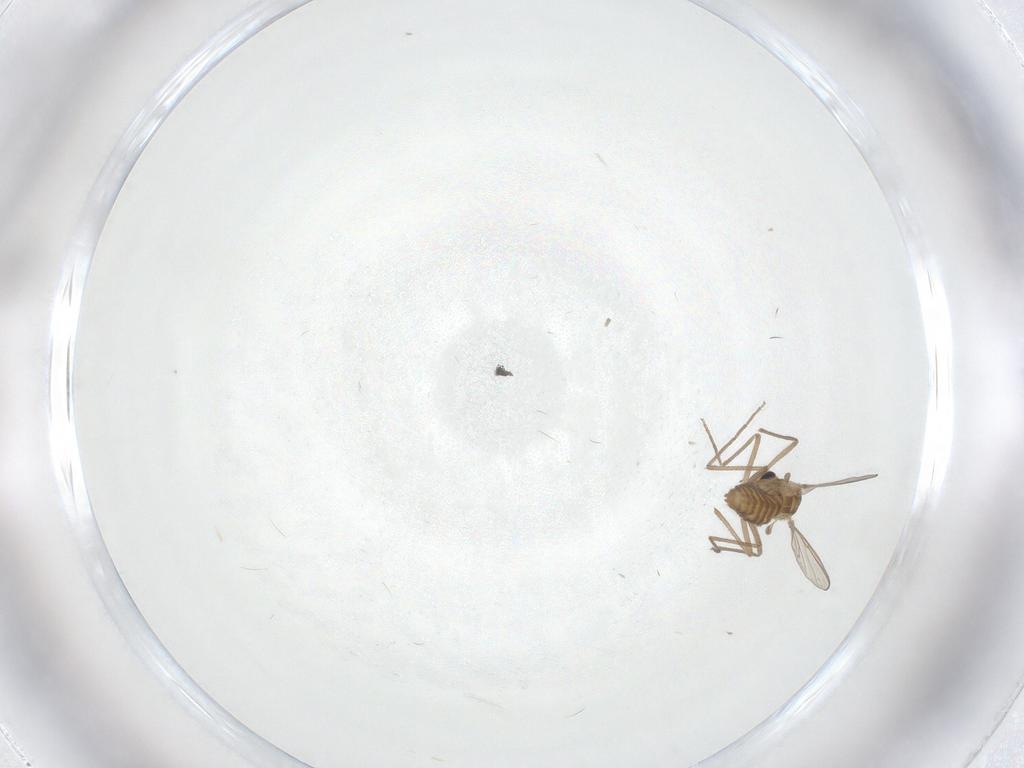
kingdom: Animalia
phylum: Arthropoda
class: Insecta
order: Diptera
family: Chironomidae
